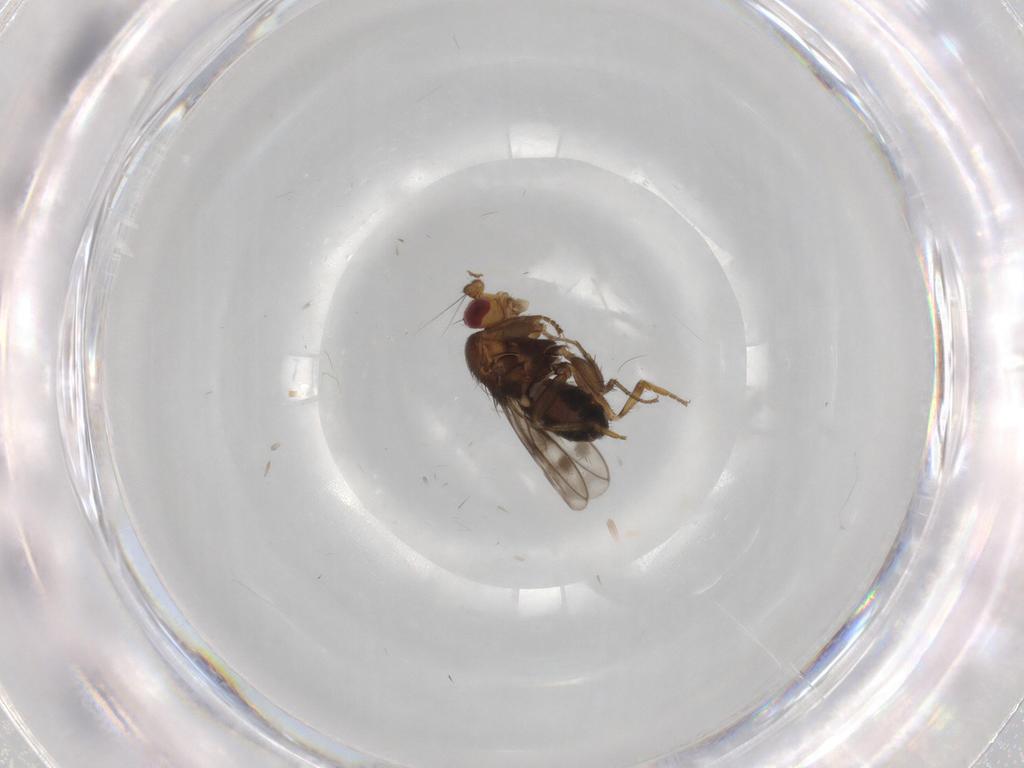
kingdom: Animalia
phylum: Arthropoda
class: Insecta
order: Diptera
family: Sphaeroceridae
